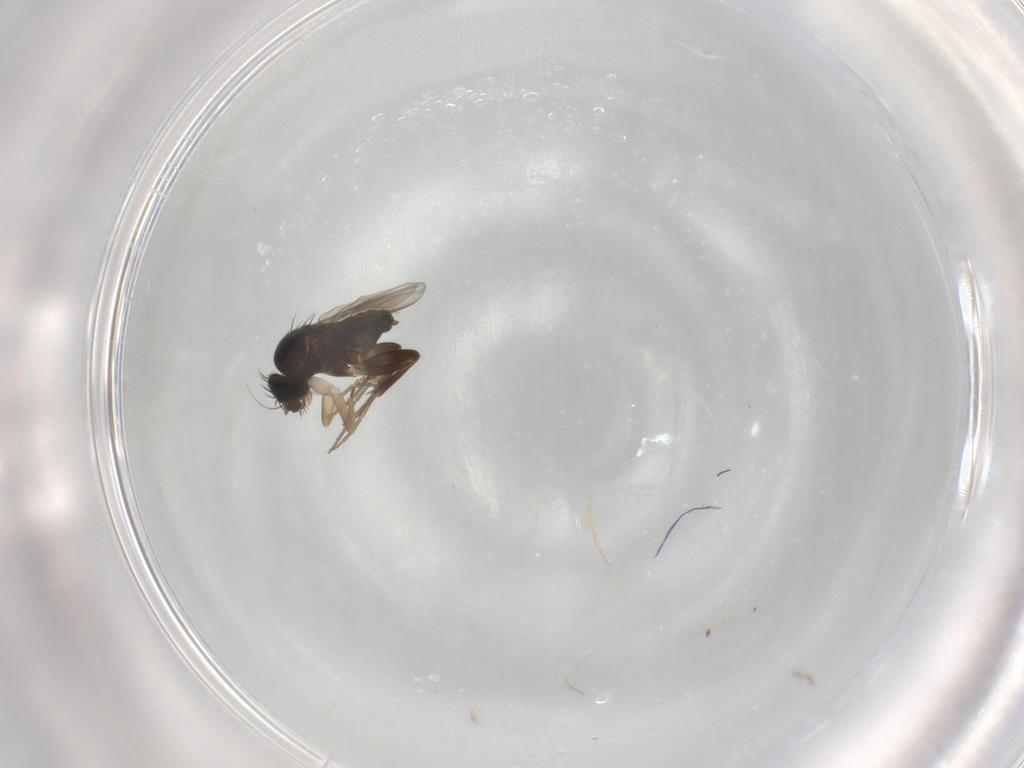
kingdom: Animalia
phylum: Arthropoda
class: Insecta
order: Diptera
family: Phoridae
